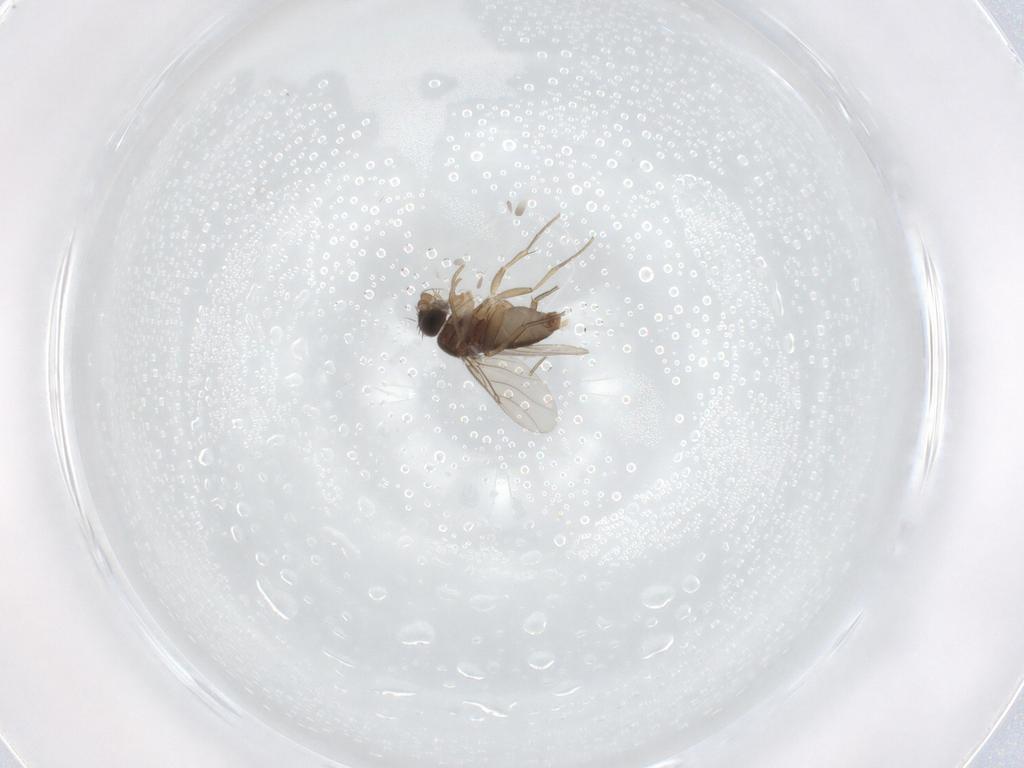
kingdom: Animalia
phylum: Arthropoda
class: Insecta
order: Diptera
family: Phoridae
